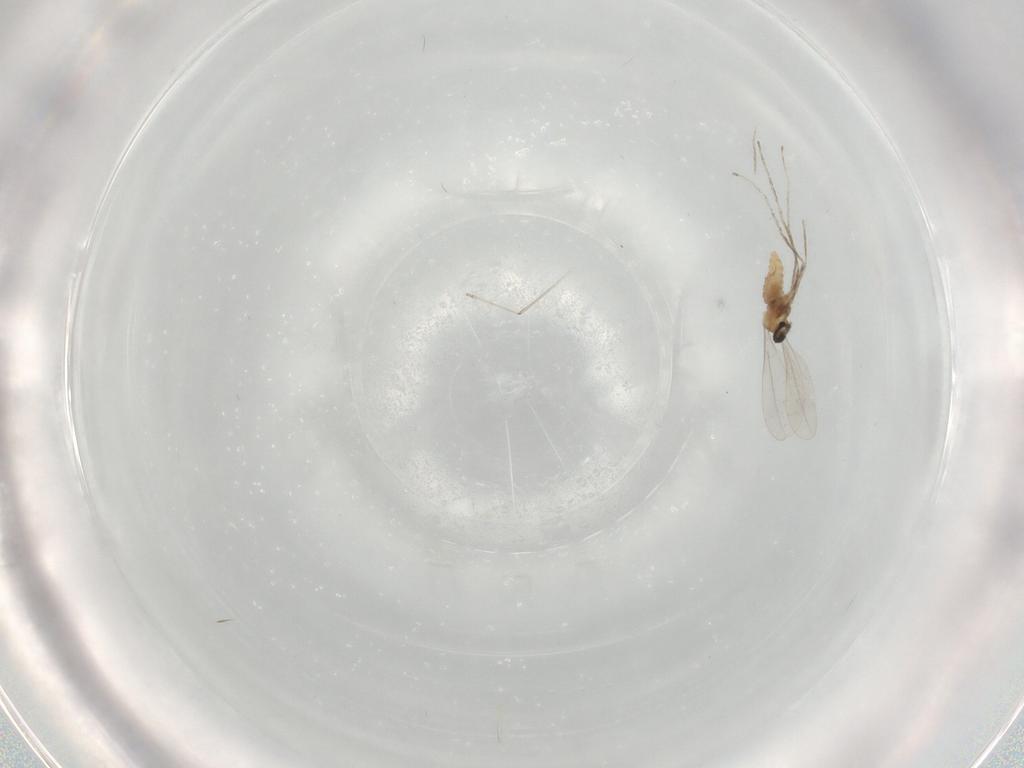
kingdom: Animalia
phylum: Arthropoda
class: Insecta
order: Diptera
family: Cecidomyiidae
